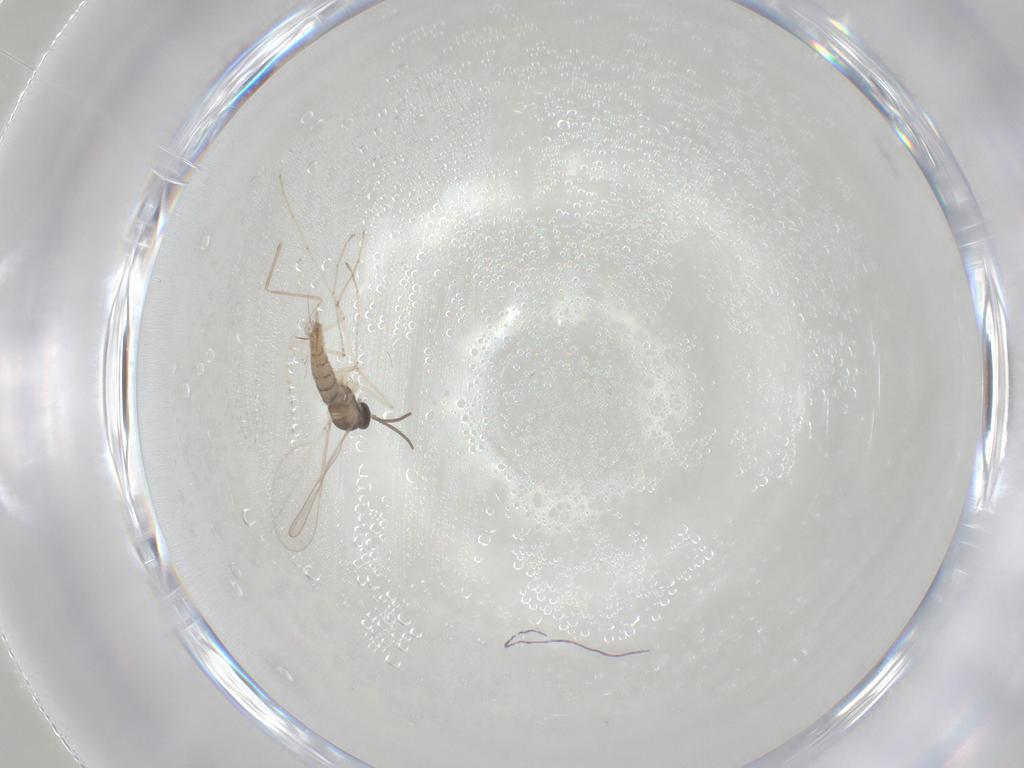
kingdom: Animalia
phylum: Arthropoda
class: Insecta
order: Diptera
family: Cecidomyiidae
